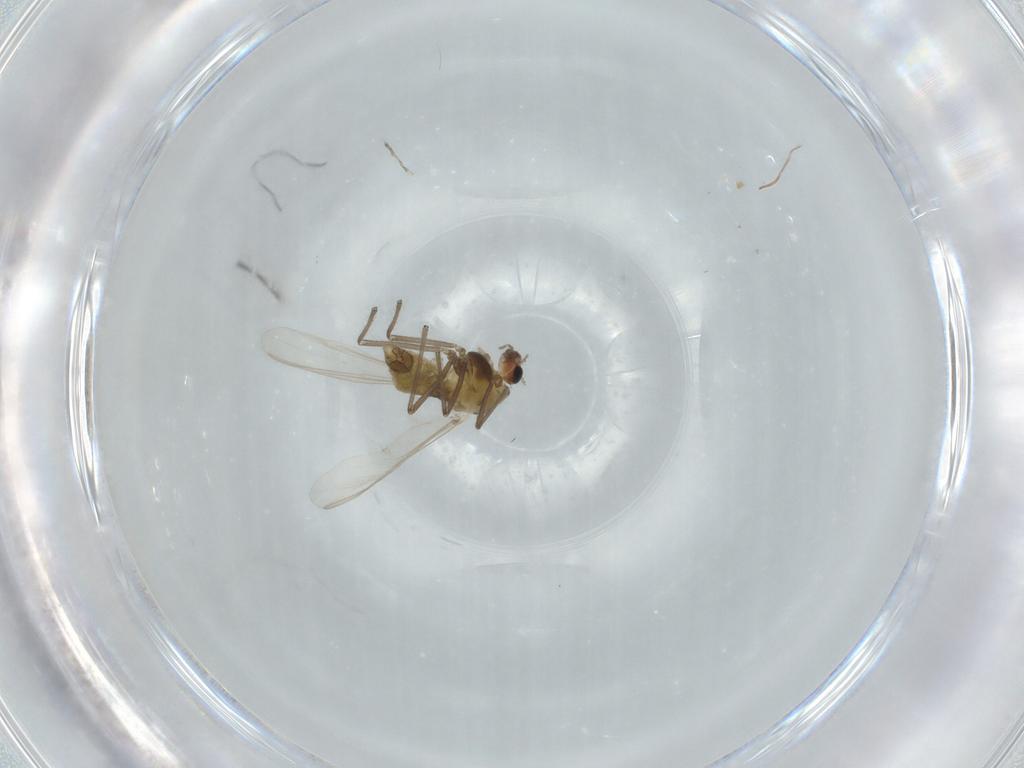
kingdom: Animalia
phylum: Arthropoda
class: Insecta
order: Diptera
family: Chironomidae
